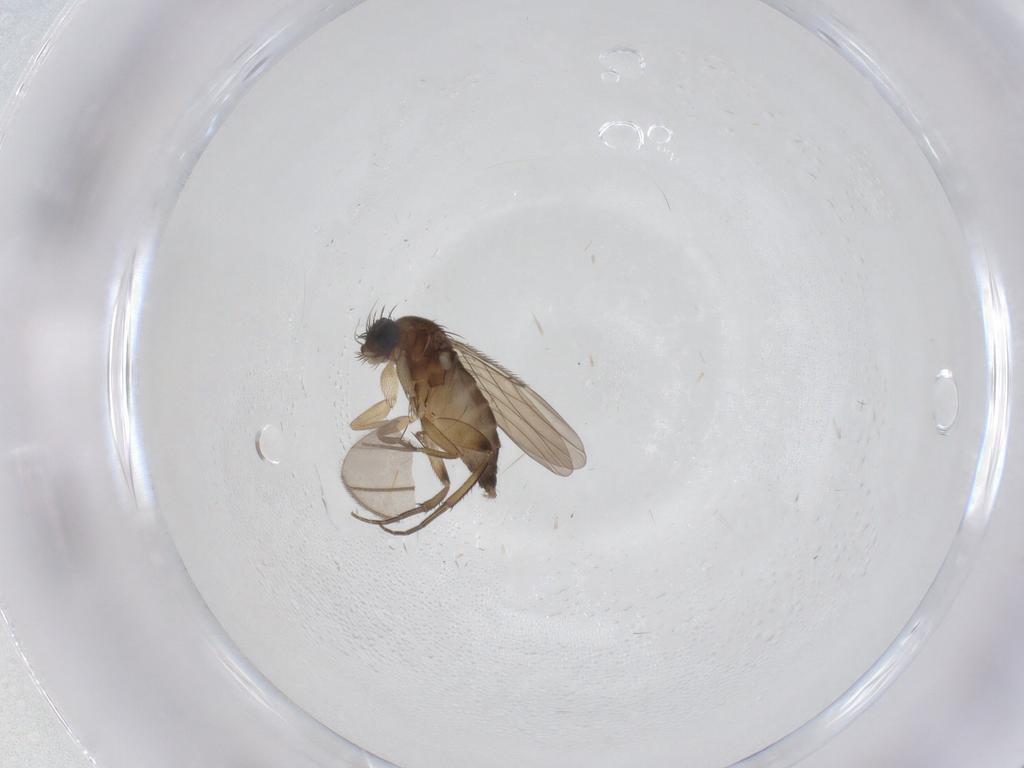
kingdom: Animalia
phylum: Arthropoda
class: Insecta
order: Diptera
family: Phoridae
